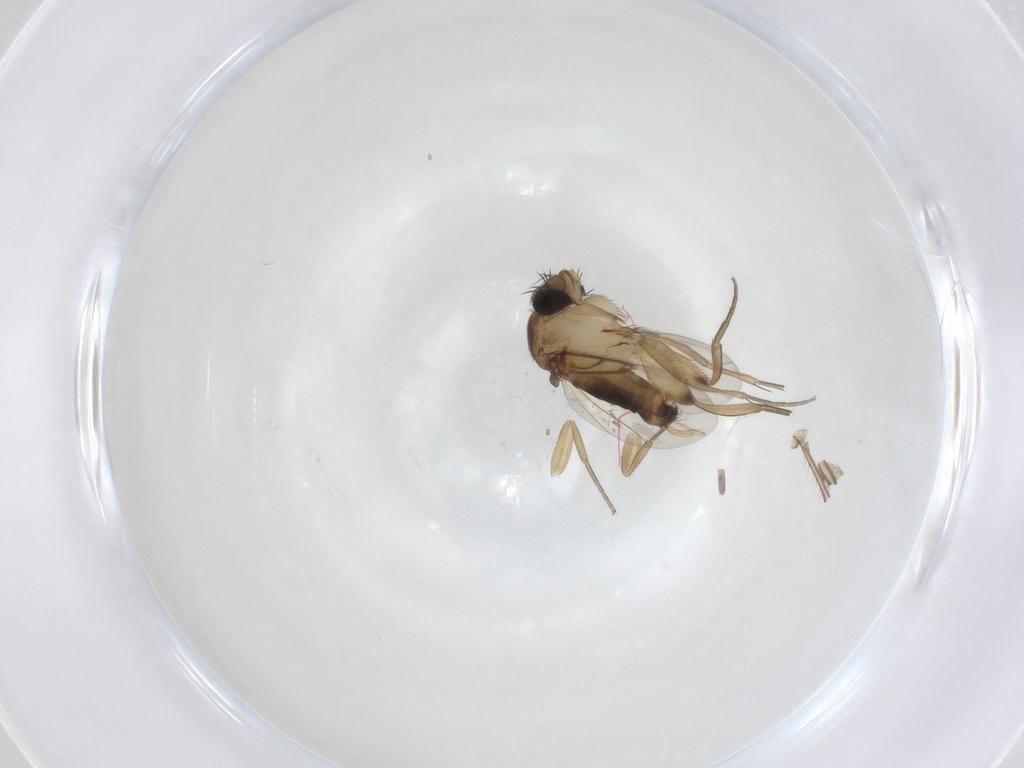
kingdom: Animalia
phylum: Arthropoda
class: Insecta
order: Diptera
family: Phoridae
